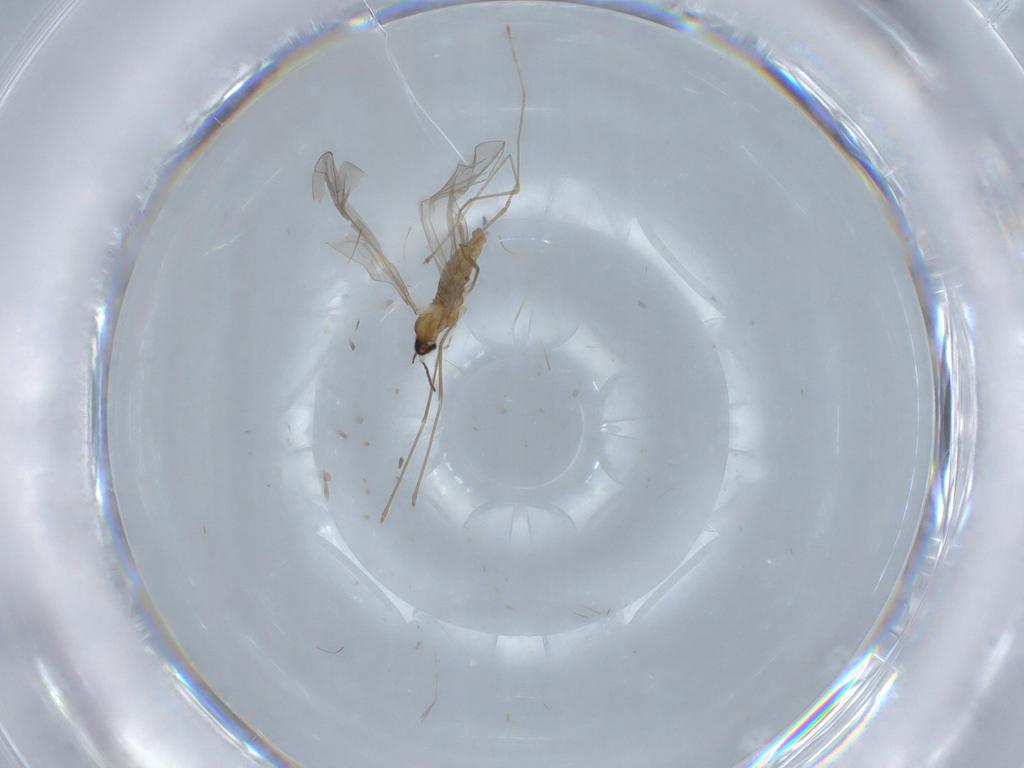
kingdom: Animalia
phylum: Arthropoda
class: Insecta
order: Diptera
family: Cecidomyiidae
